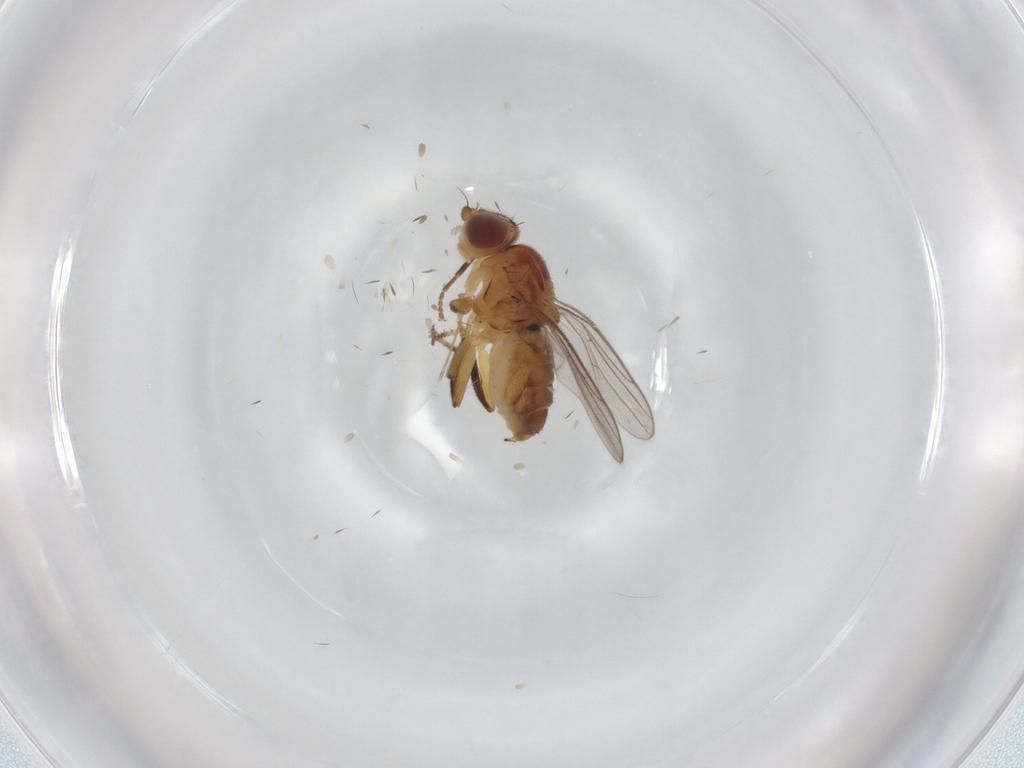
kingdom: Animalia
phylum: Arthropoda
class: Insecta
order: Diptera
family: Chloropidae
